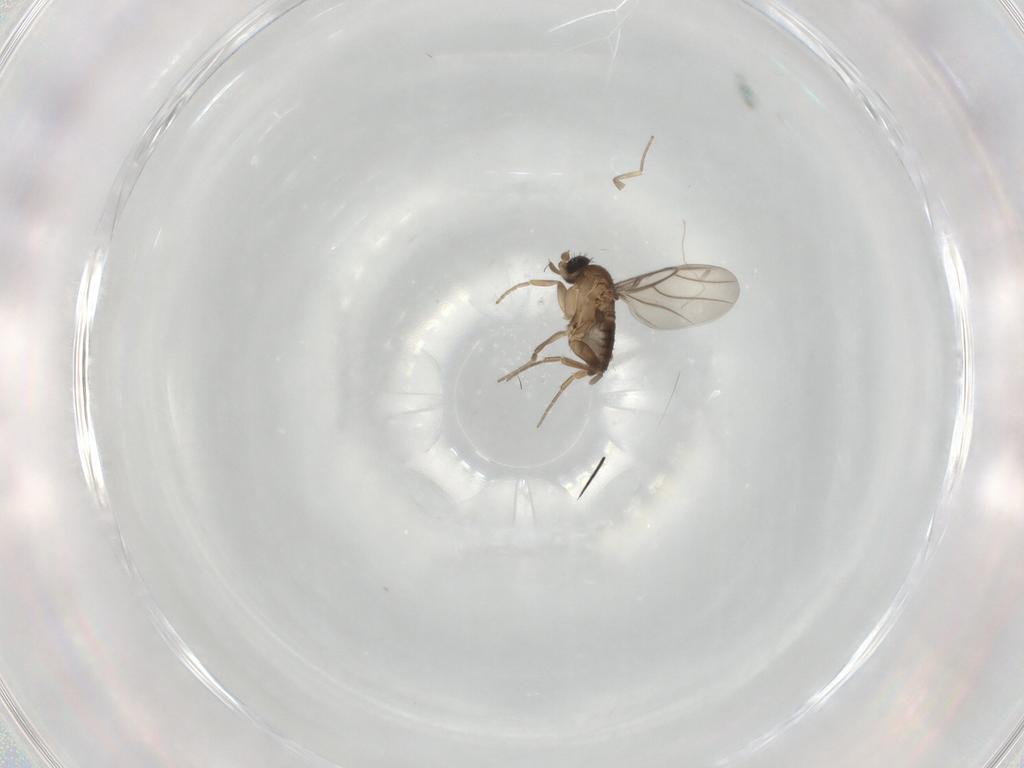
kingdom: Animalia
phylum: Arthropoda
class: Insecta
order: Diptera
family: Phoridae
